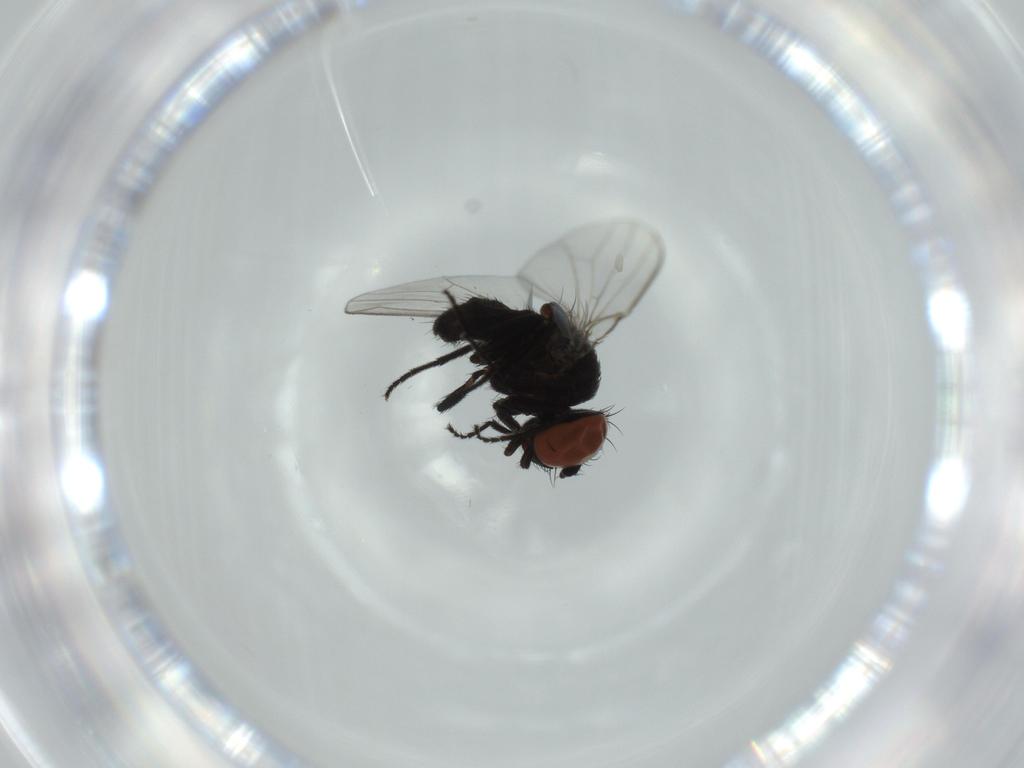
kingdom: Animalia
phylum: Arthropoda
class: Insecta
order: Diptera
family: Milichiidae
